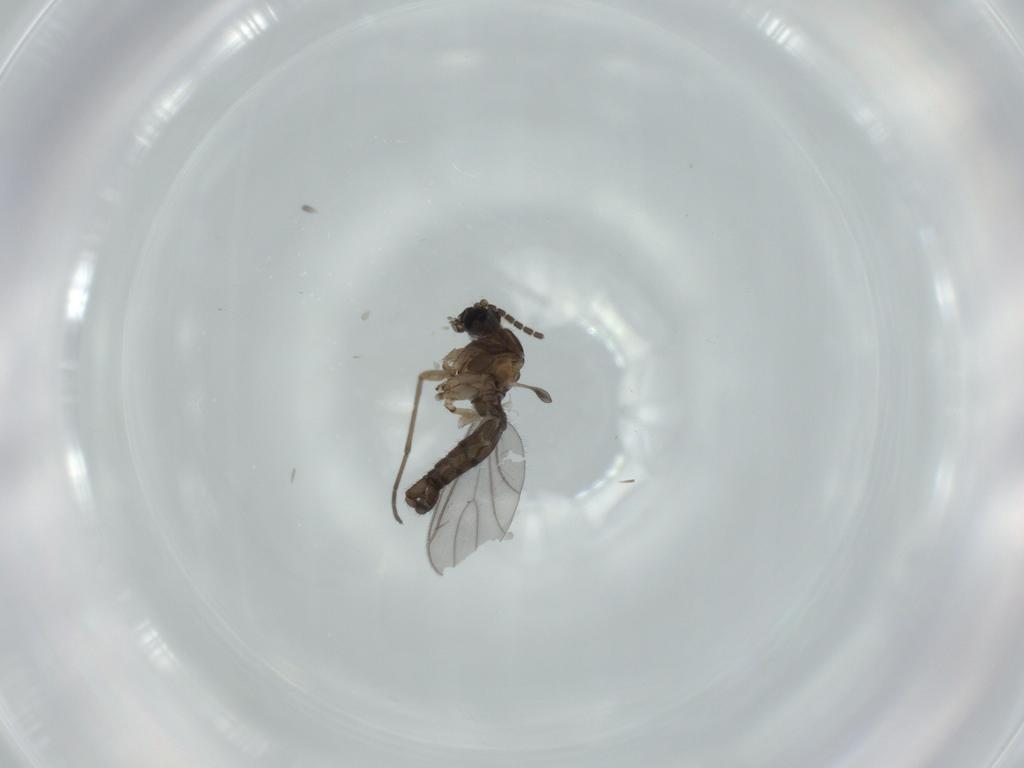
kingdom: Animalia
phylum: Arthropoda
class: Insecta
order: Diptera
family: Sciaridae
